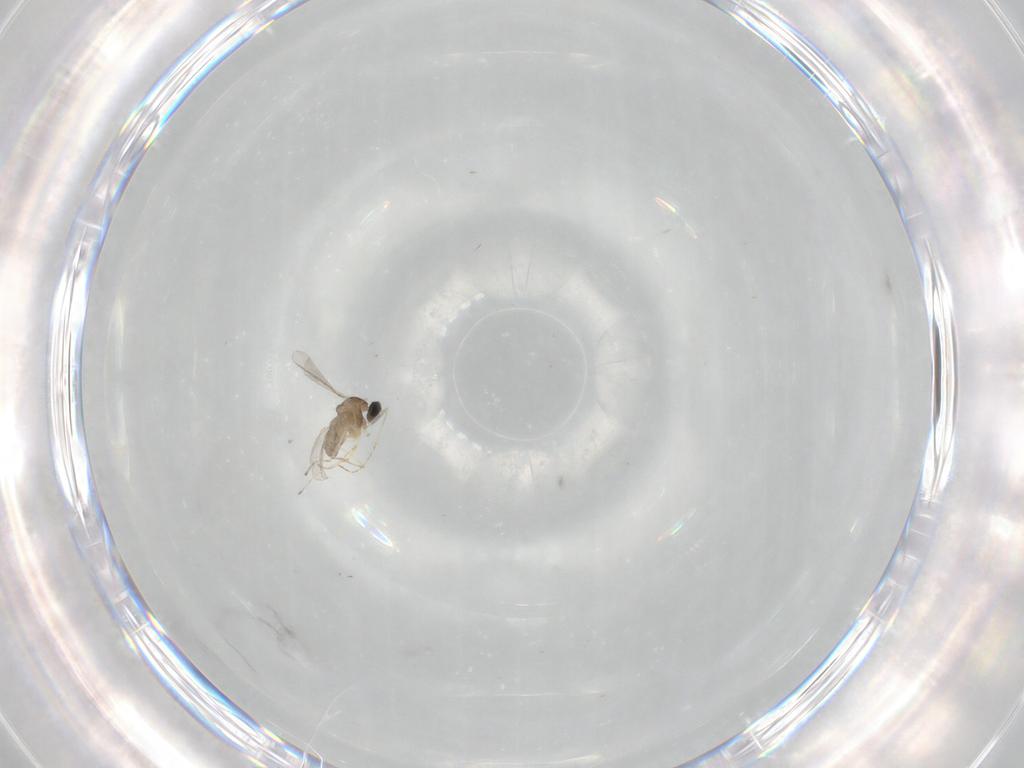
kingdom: Animalia
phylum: Arthropoda
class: Insecta
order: Diptera
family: Cecidomyiidae
